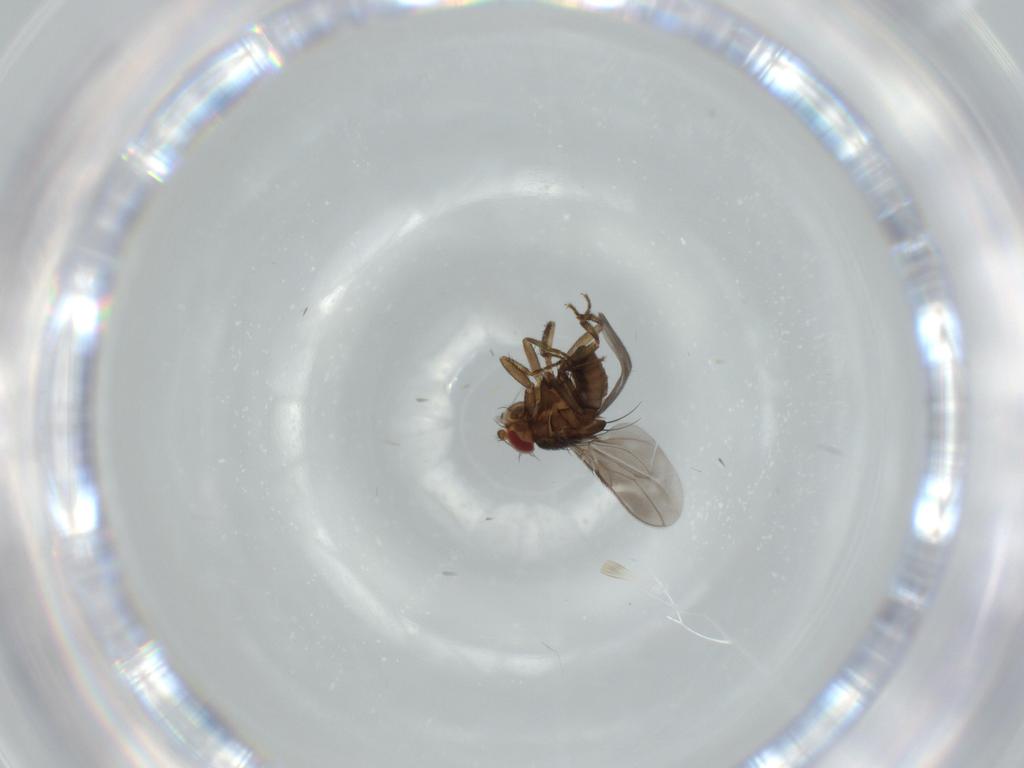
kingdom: Animalia
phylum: Arthropoda
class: Insecta
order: Diptera
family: Sphaeroceridae
